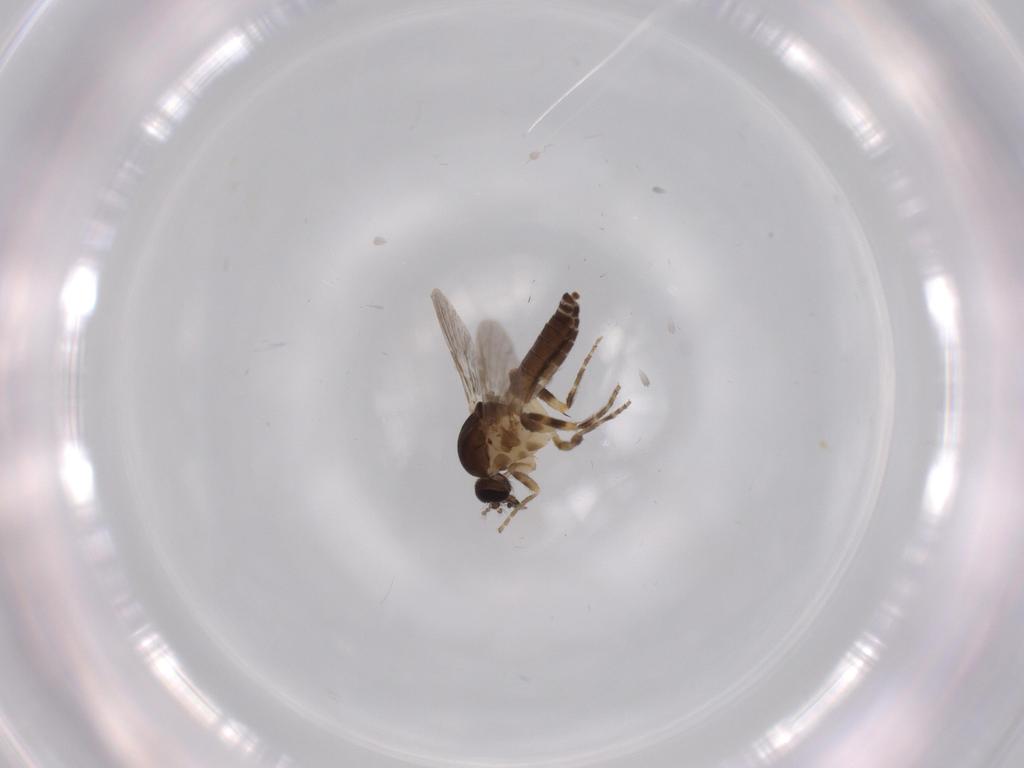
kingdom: Animalia
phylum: Arthropoda
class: Insecta
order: Diptera
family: Ceratopogonidae
